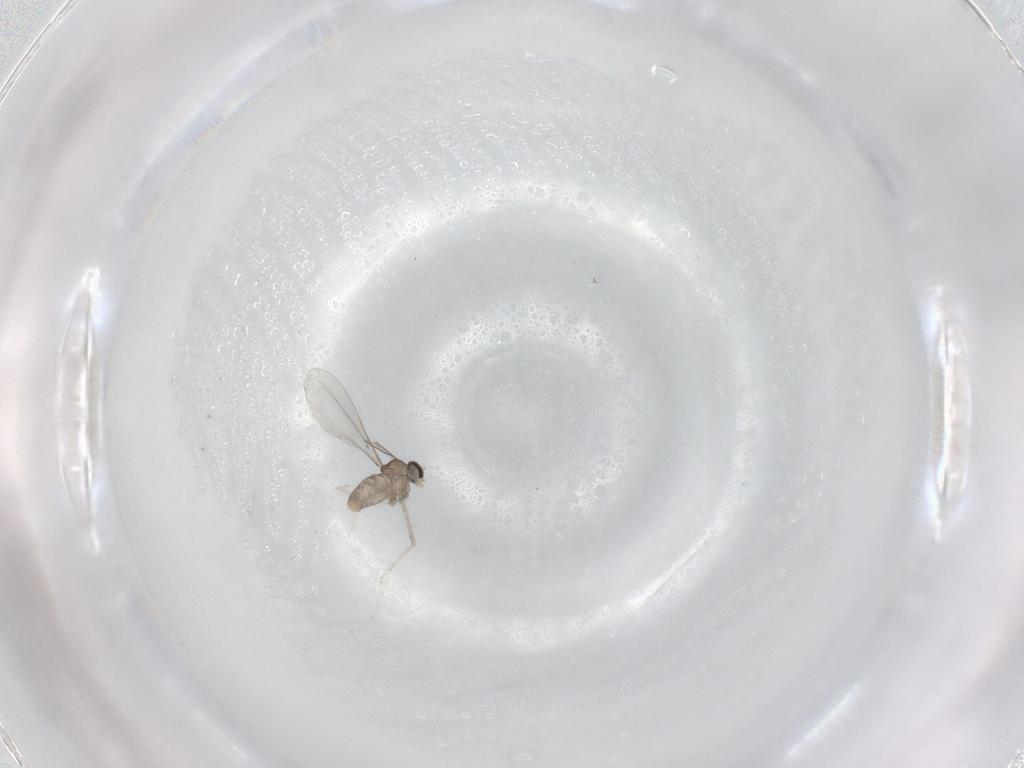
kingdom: Animalia
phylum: Arthropoda
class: Insecta
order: Diptera
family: Cecidomyiidae
